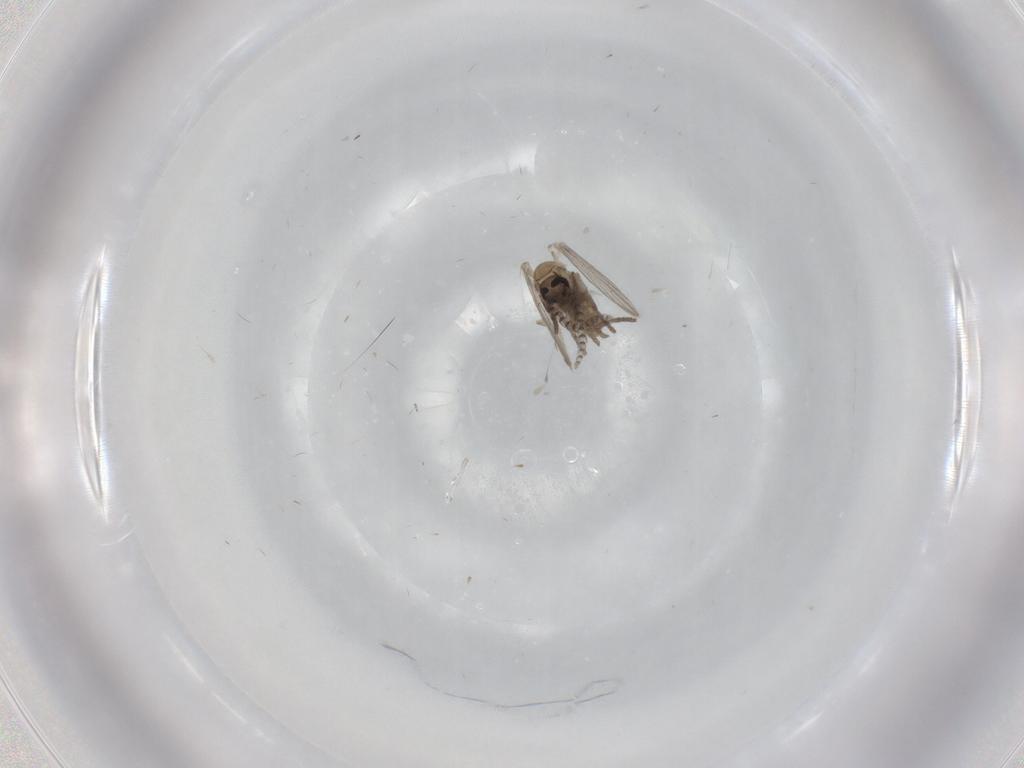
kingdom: Animalia
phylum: Arthropoda
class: Insecta
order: Diptera
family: Psychodidae
